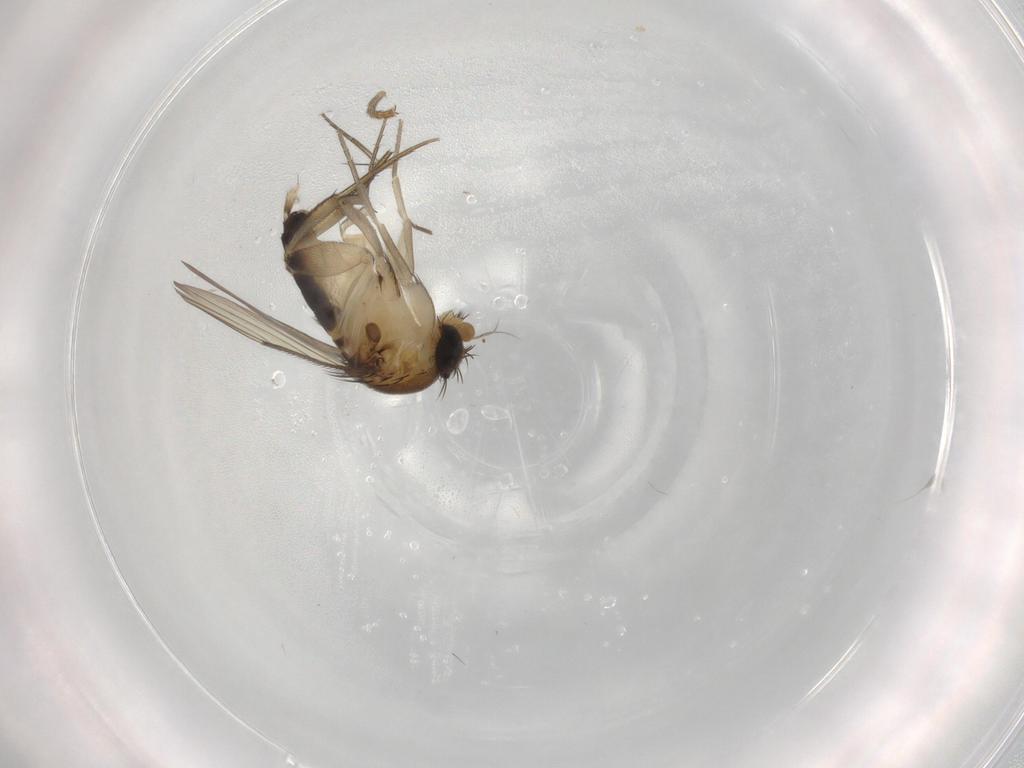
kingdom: Animalia
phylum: Arthropoda
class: Insecta
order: Diptera
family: Phoridae
